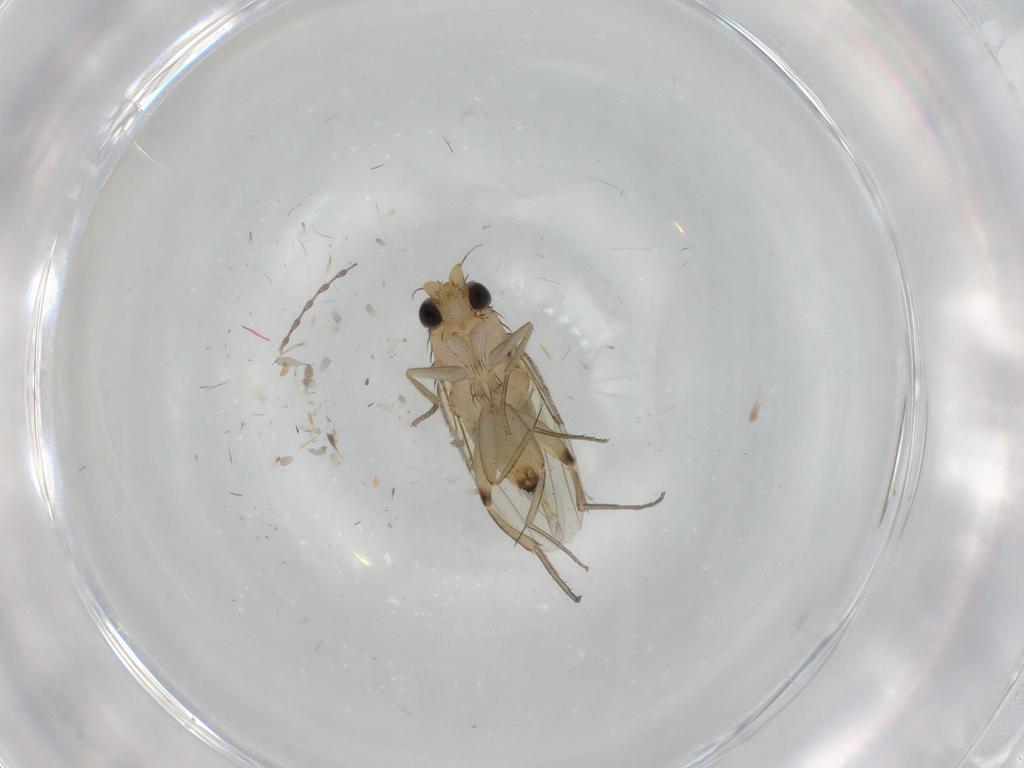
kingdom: Animalia
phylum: Arthropoda
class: Insecta
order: Diptera
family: Phoridae
